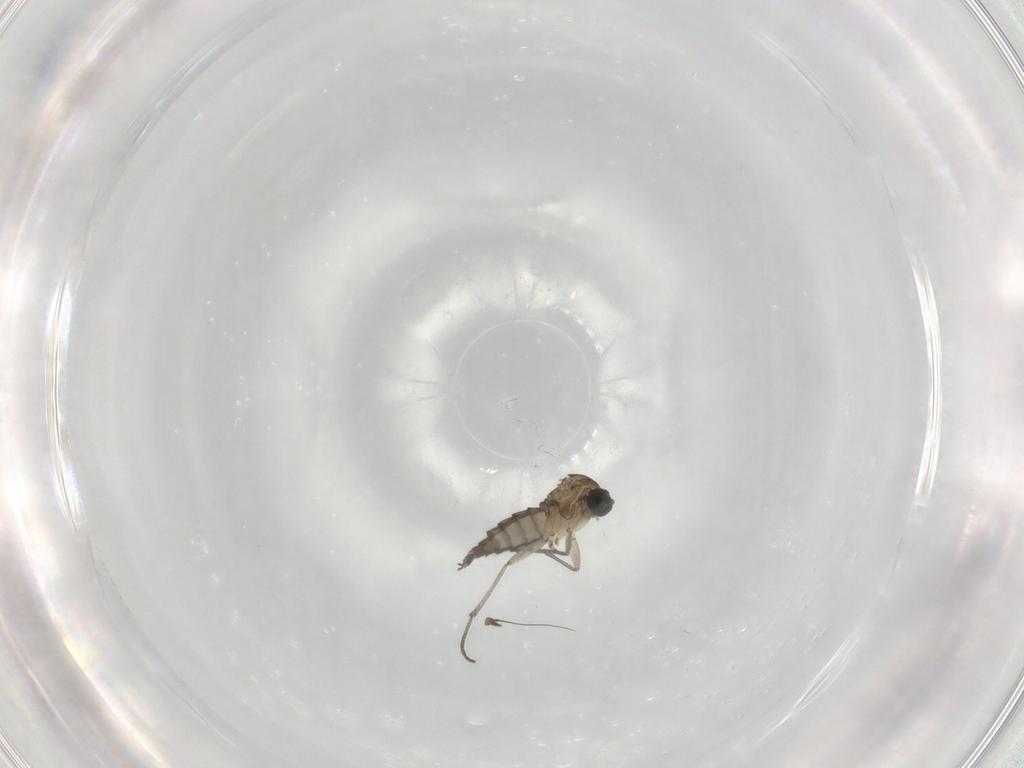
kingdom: Animalia
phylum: Arthropoda
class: Insecta
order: Diptera
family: Sciaridae
